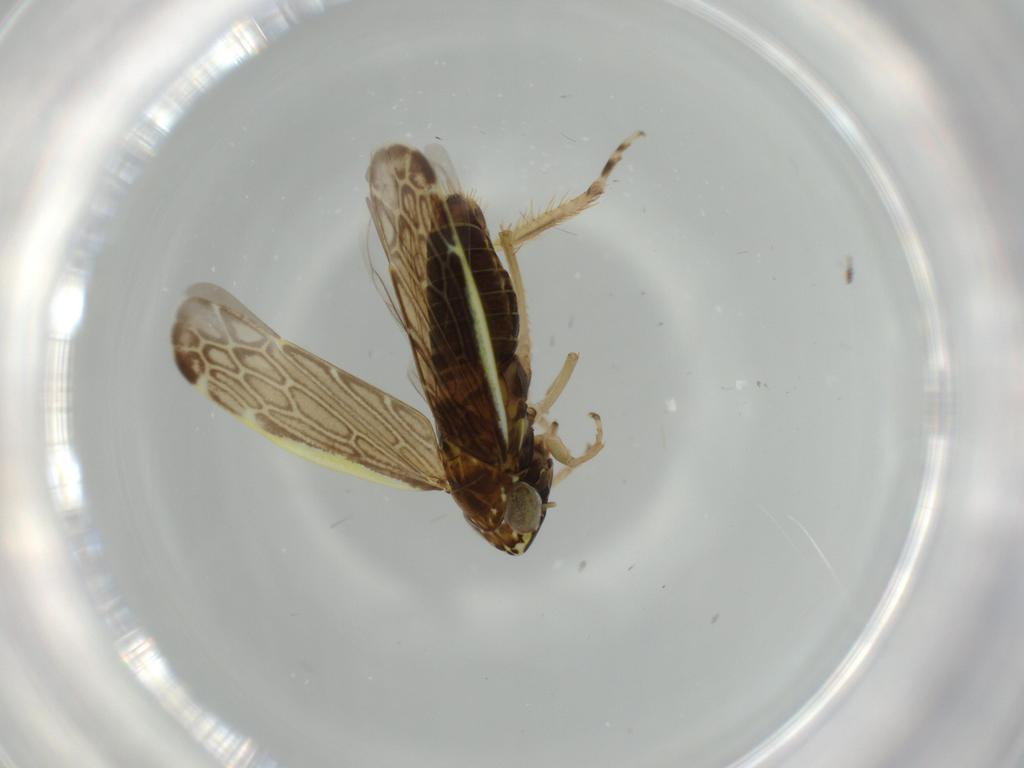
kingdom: Animalia
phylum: Arthropoda
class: Insecta
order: Hemiptera
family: Cicadellidae
